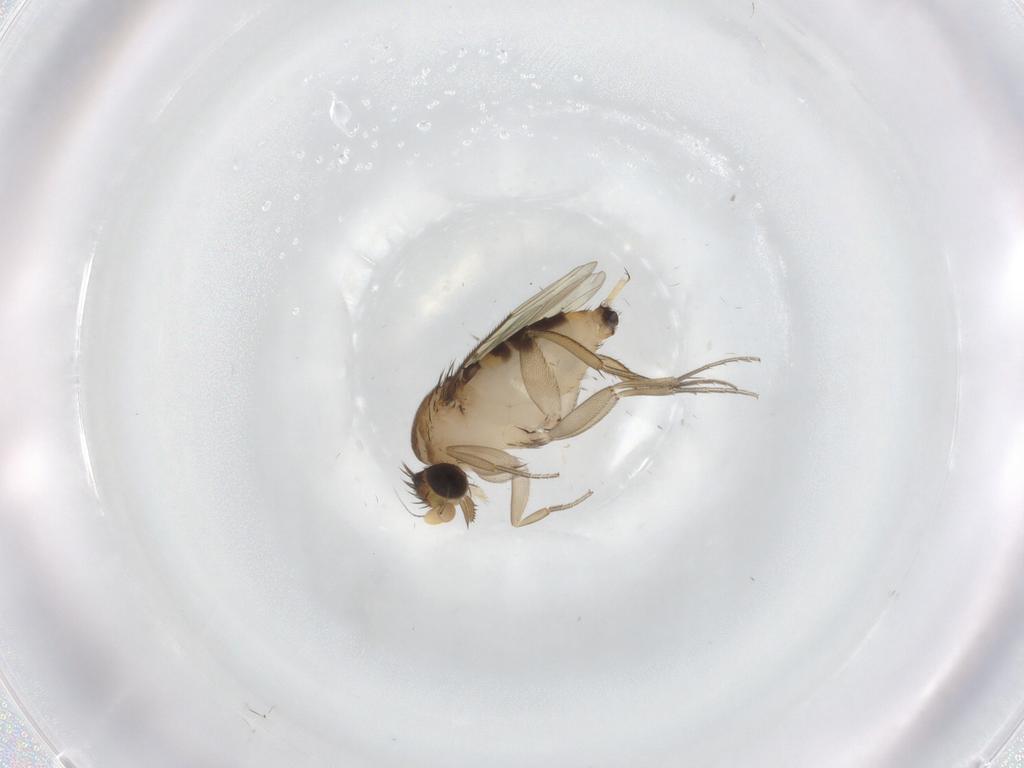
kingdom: Animalia
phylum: Arthropoda
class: Insecta
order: Diptera
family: Phoridae
